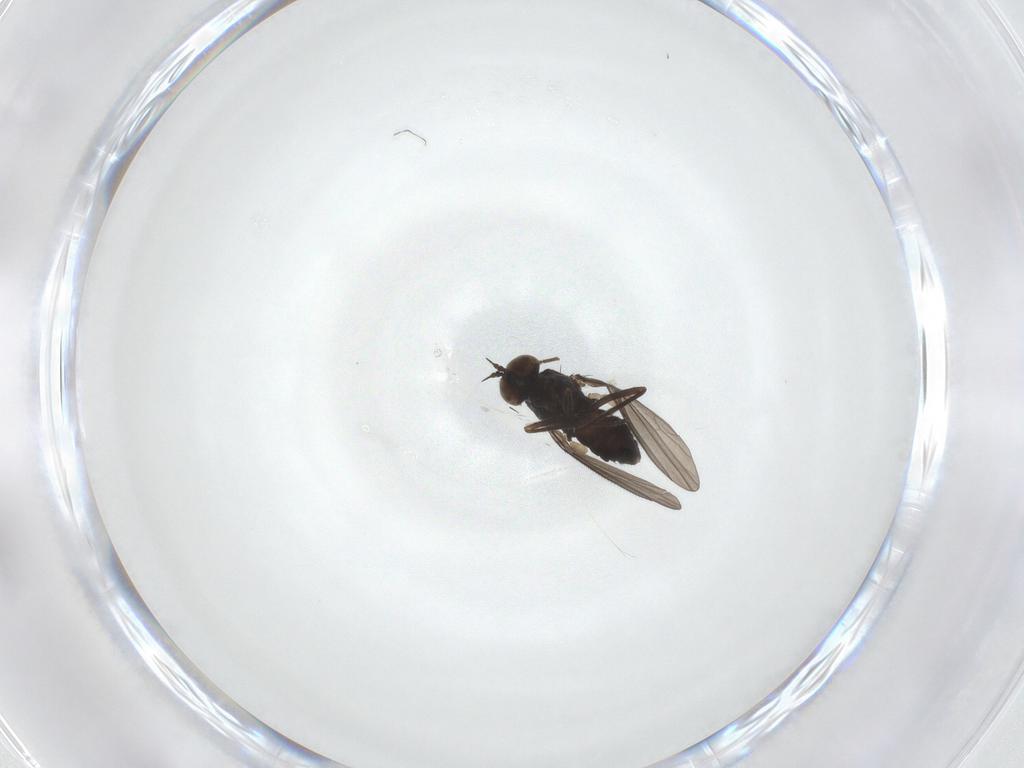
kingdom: Animalia
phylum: Arthropoda
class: Insecta
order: Diptera
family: Dolichopodidae
